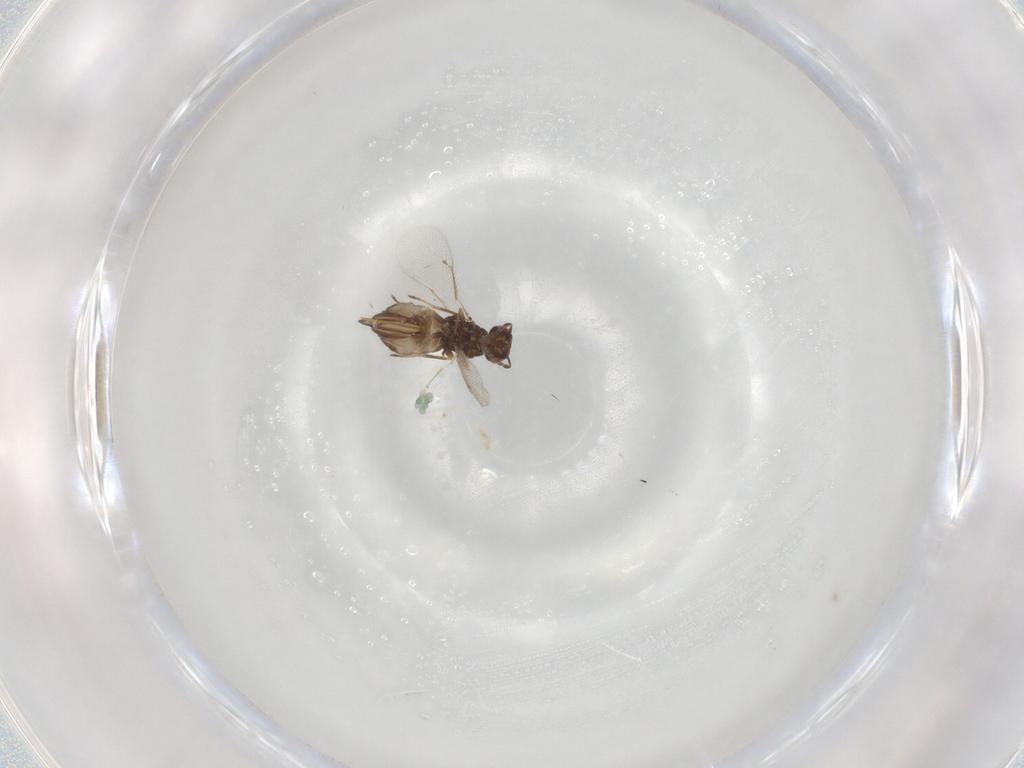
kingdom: Animalia
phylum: Arthropoda
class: Insecta
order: Hymenoptera
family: Eulophidae
